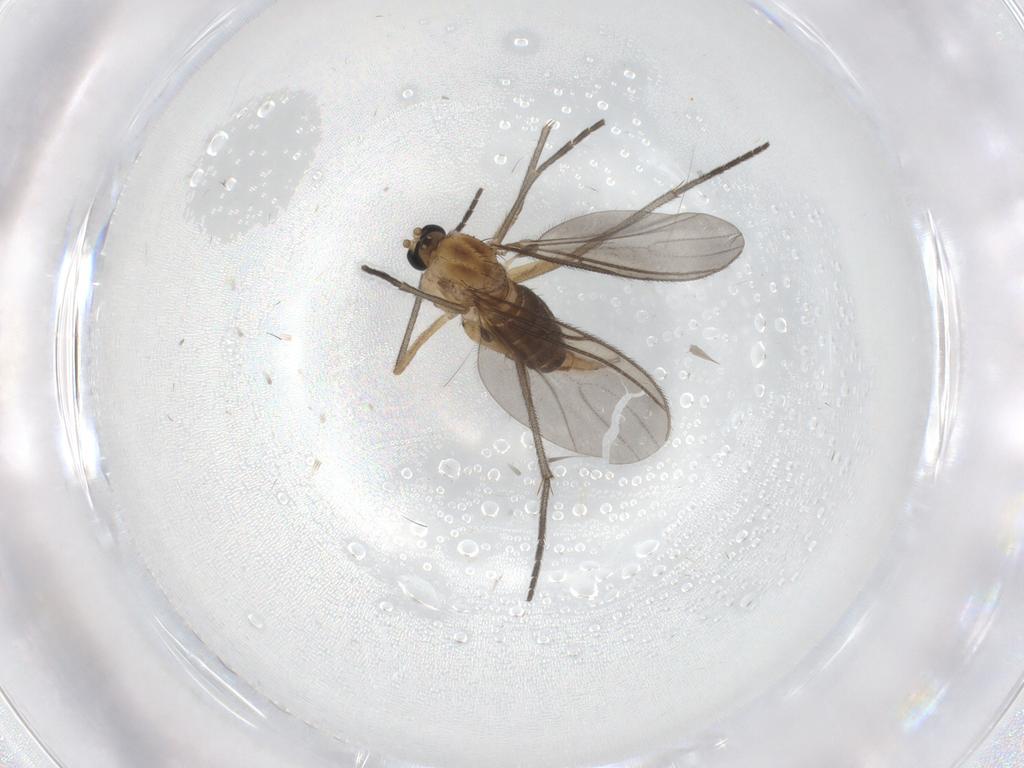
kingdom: Animalia
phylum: Arthropoda
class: Insecta
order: Diptera
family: Sciaridae
